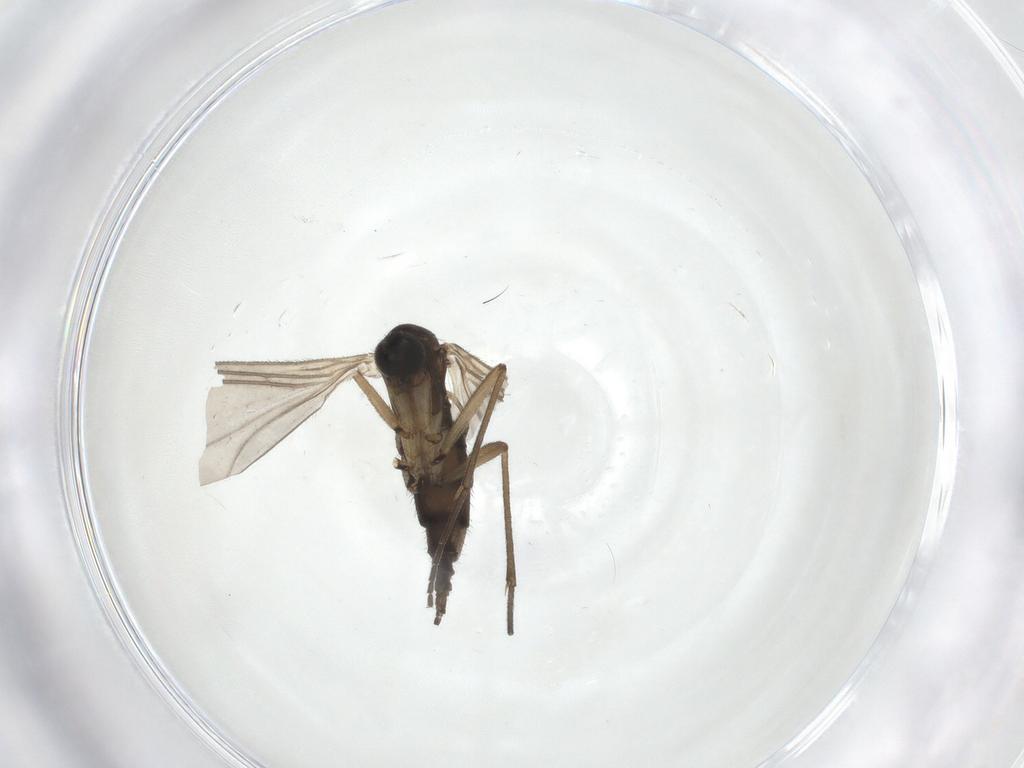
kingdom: Animalia
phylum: Arthropoda
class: Insecta
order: Diptera
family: Sciaridae
